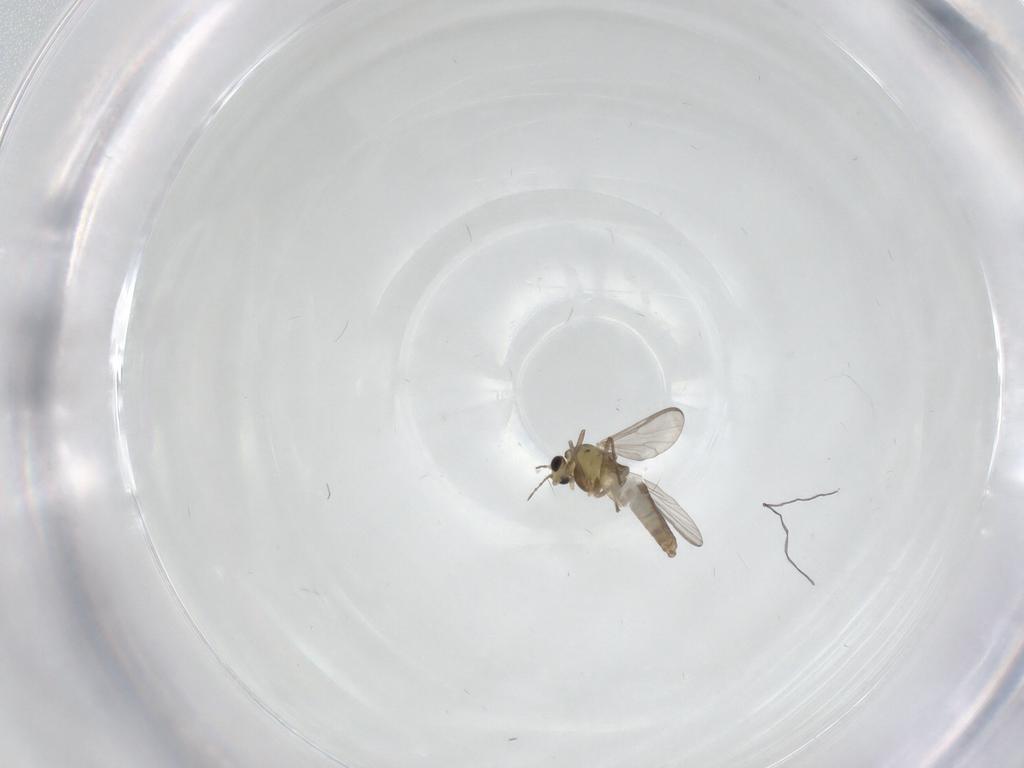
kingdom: Animalia
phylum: Arthropoda
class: Insecta
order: Diptera
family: Chironomidae
